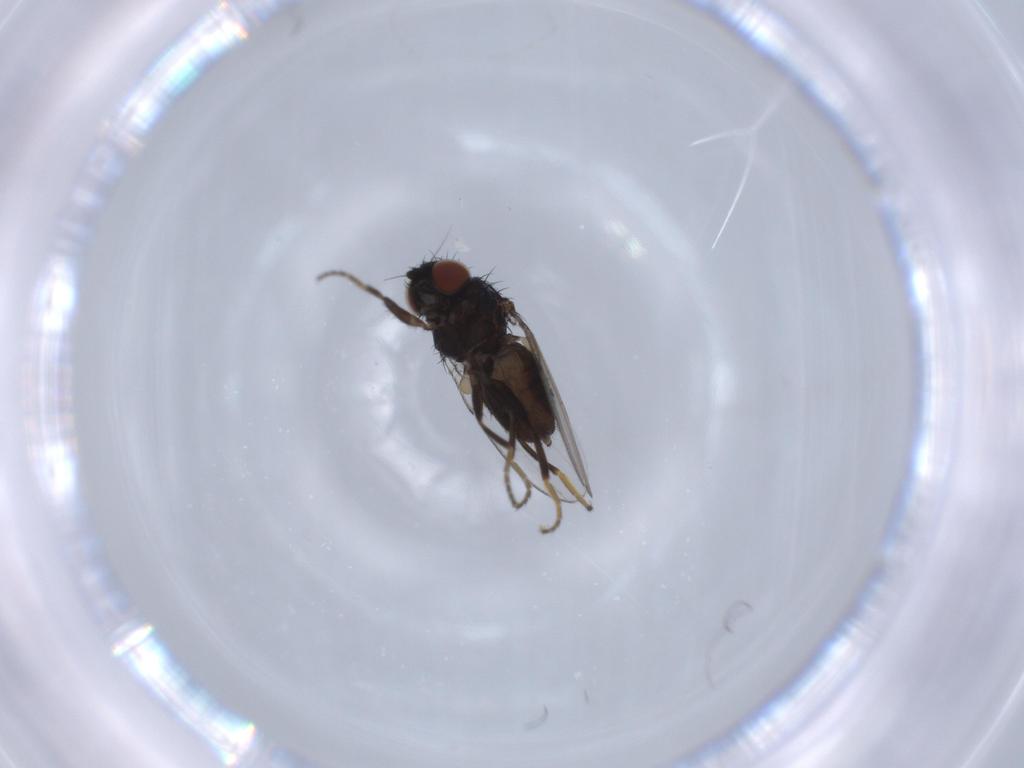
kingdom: Animalia
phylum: Arthropoda
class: Insecta
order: Diptera
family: Milichiidae
